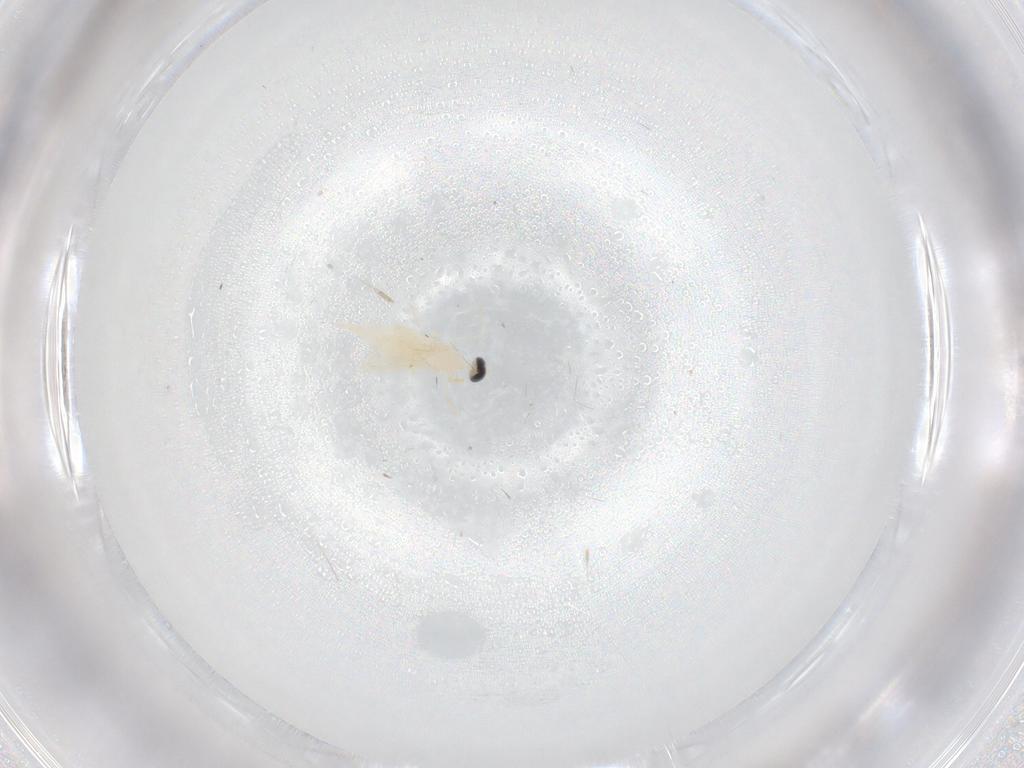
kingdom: Animalia
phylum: Arthropoda
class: Insecta
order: Diptera
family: Cecidomyiidae
